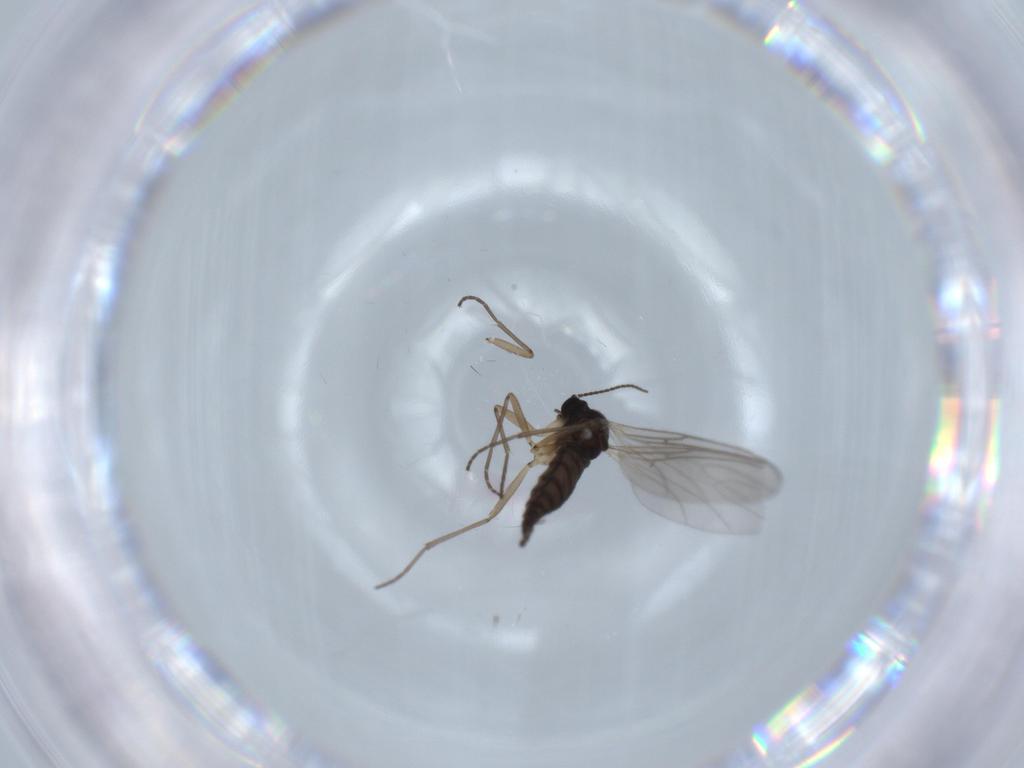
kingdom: Animalia
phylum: Arthropoda
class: Insecta
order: Diptera
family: Empididae
